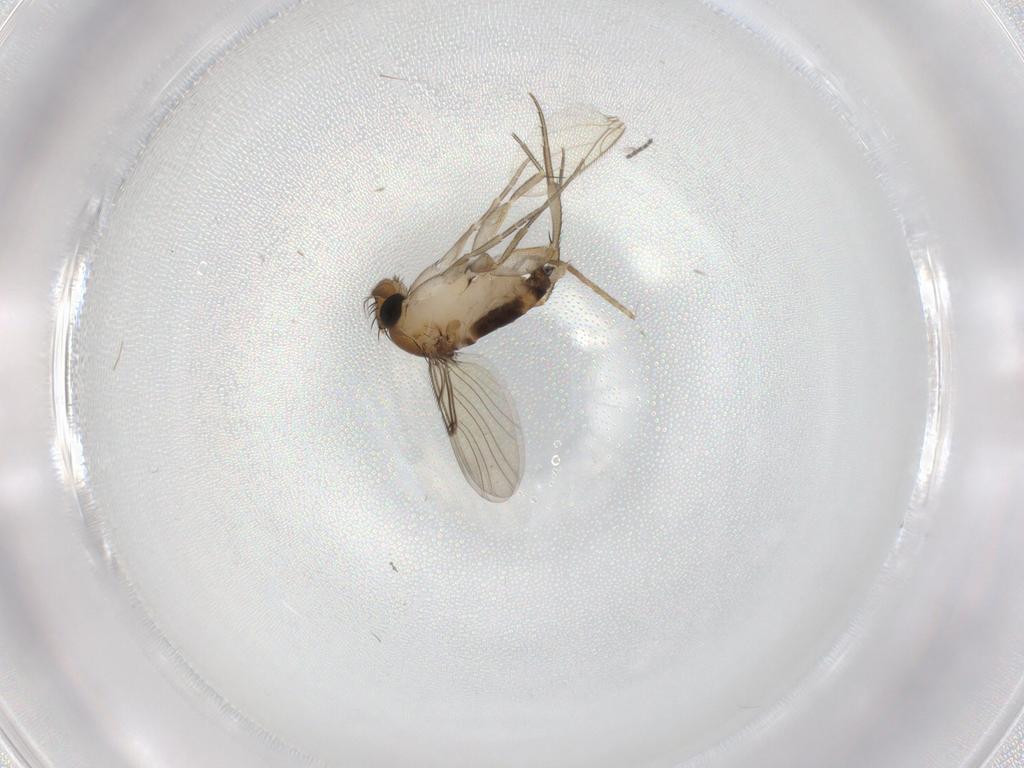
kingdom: Animalia
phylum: Arthropoda
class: Insecta
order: Diptera
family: Phoridae
